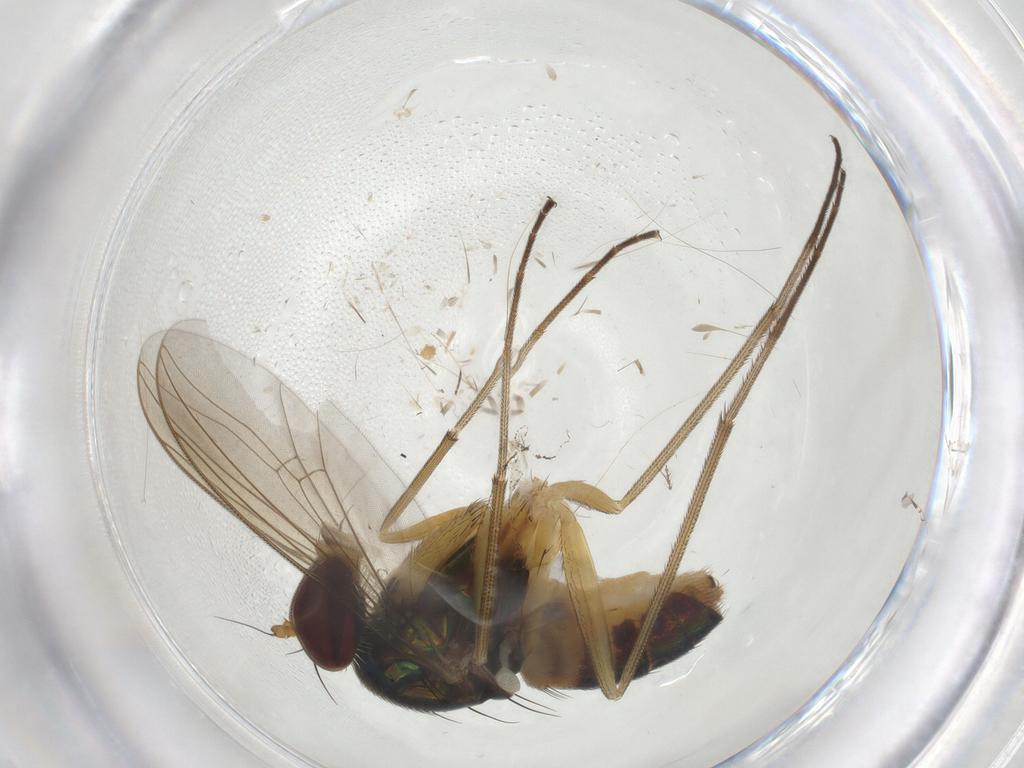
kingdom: Animalia
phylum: Arthropoda
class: Insecta
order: Diptera
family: Dolichopodidae
